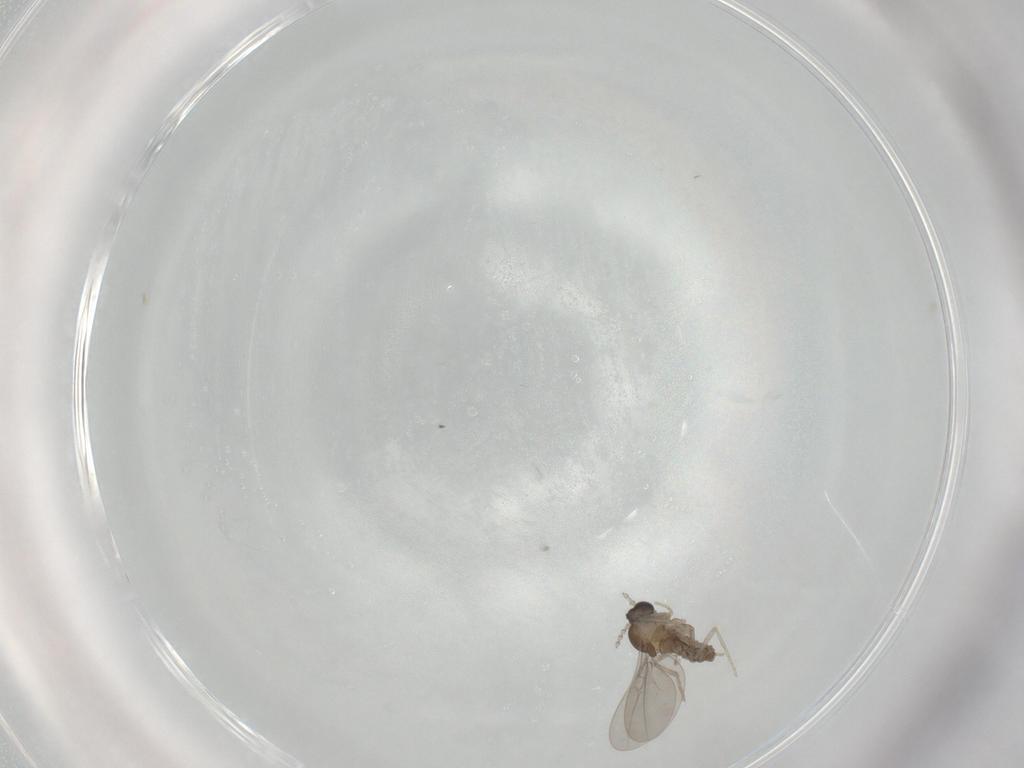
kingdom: Animalia
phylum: Arthropoda
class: Insecta
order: Diptera
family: Cecidomyiidae
